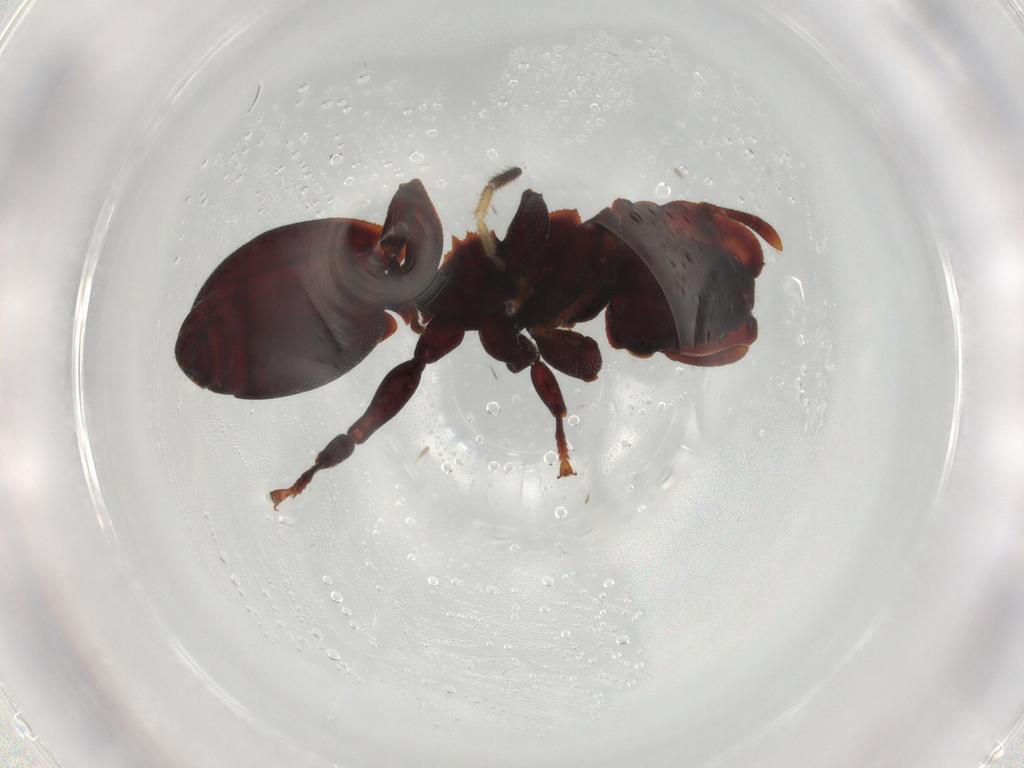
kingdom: Animalia
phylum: Arthropoda
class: Insecta
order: Hymenoptera
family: Formicidae
